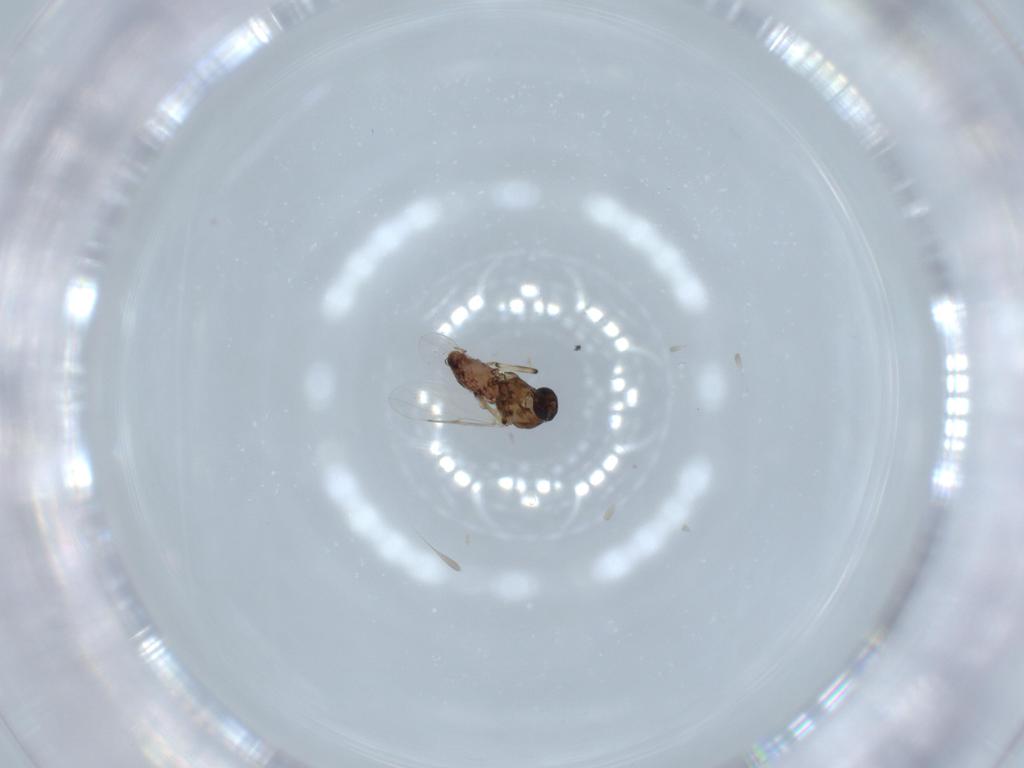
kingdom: Animalia
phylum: Arthropoda
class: Insecta
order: Diptera
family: Ceratopogonidae
